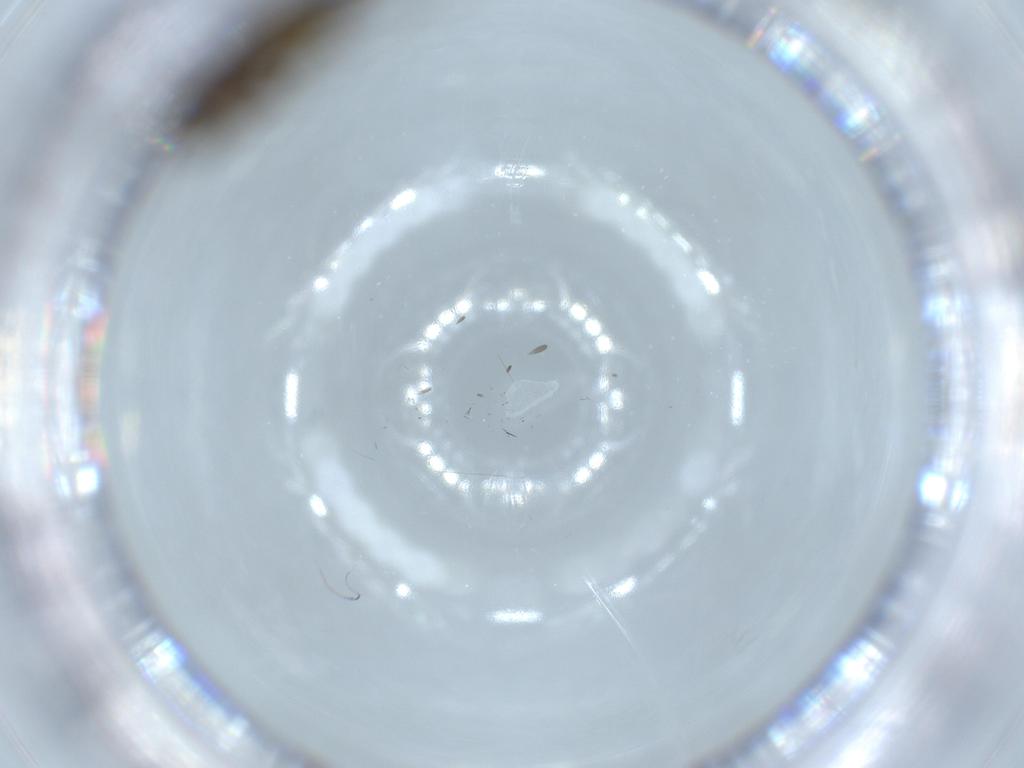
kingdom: Animalia
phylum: Arthropoda
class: Insecta
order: Diptera
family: Sciaridae
